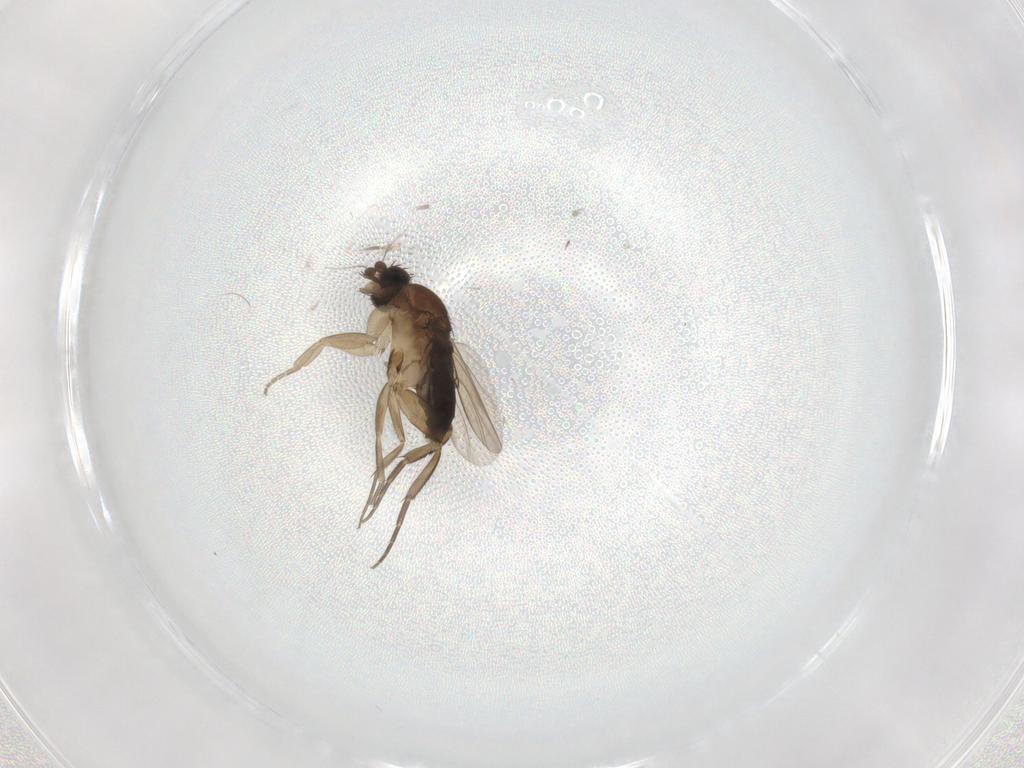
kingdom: Animalia
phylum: Arthropoda
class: Insecta
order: Diptera
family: Phoridae
